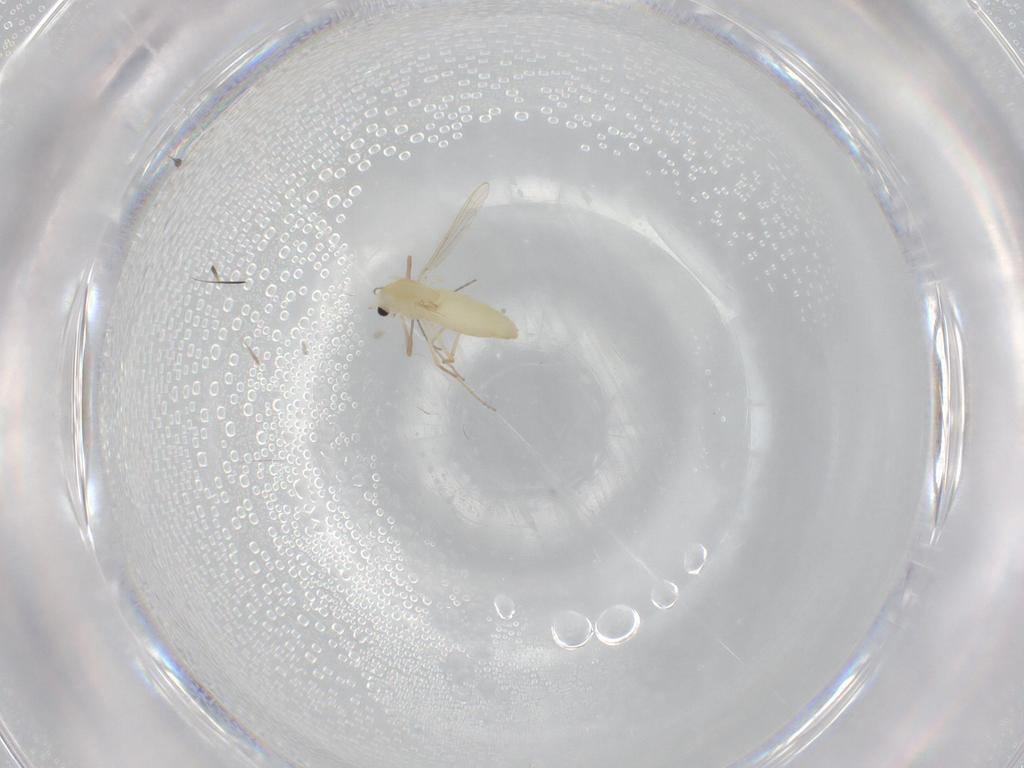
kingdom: Animalia
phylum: Arthropoda
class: Insecta
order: Diptera
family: Chironomidae
